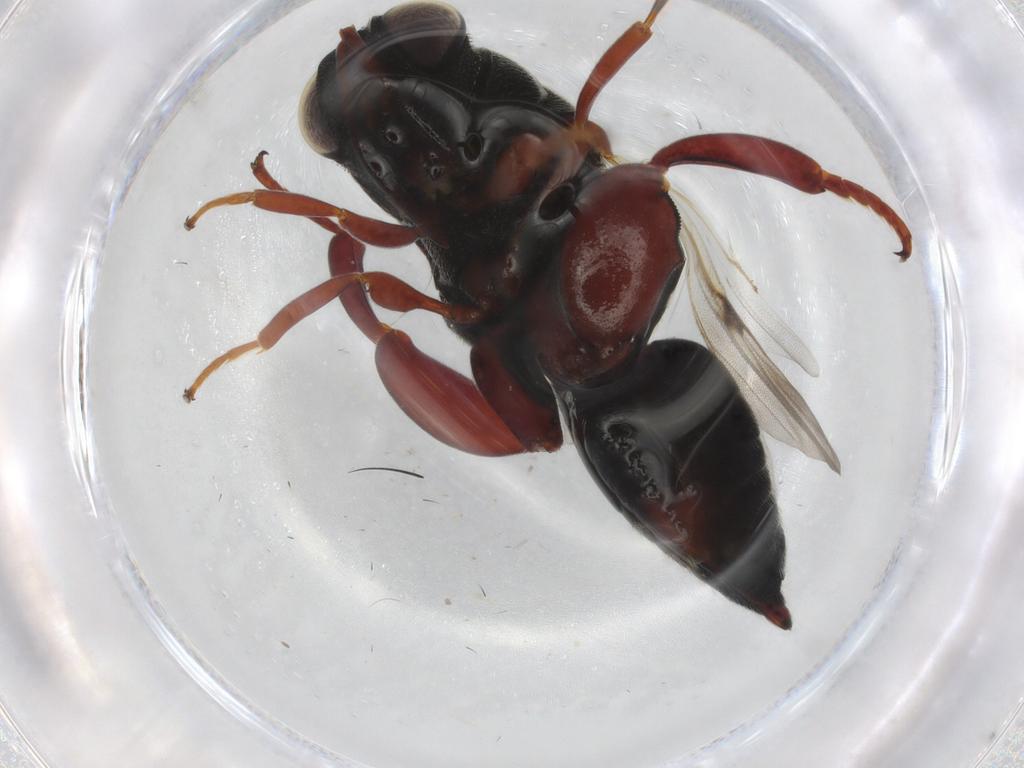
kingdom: Animalia
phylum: Arthropoda
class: Insecta
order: Hymenoptera
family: Chalcididae
